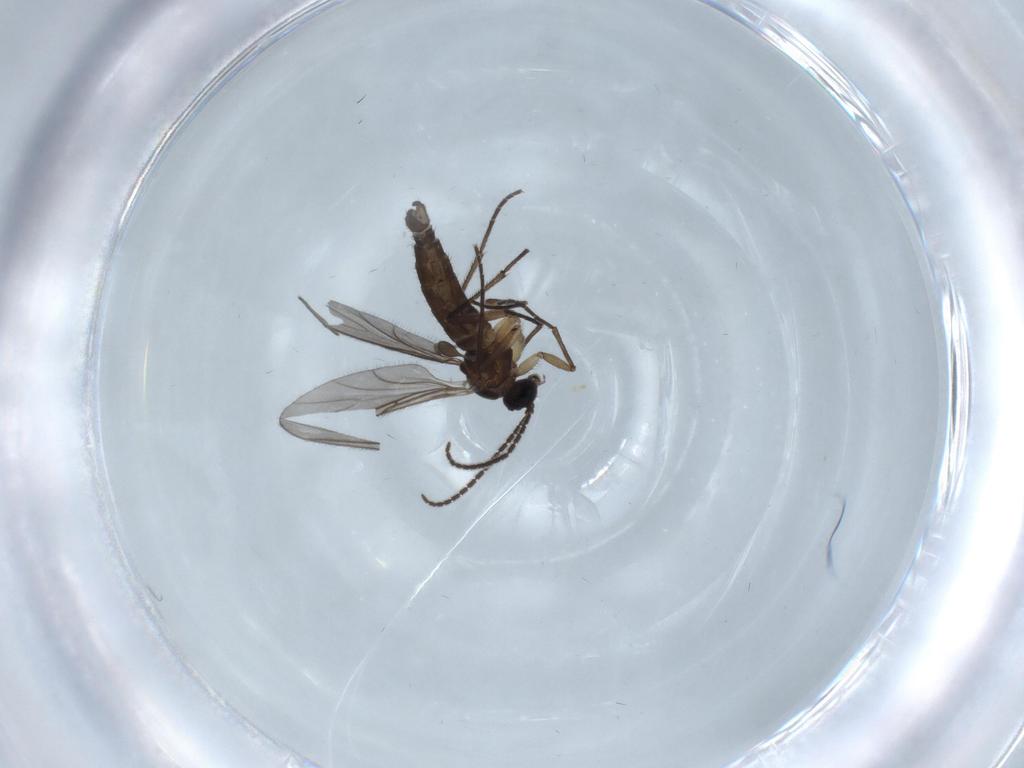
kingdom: Animalia
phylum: Arthropoda
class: Insecta
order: Diptera
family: Sciaridae
